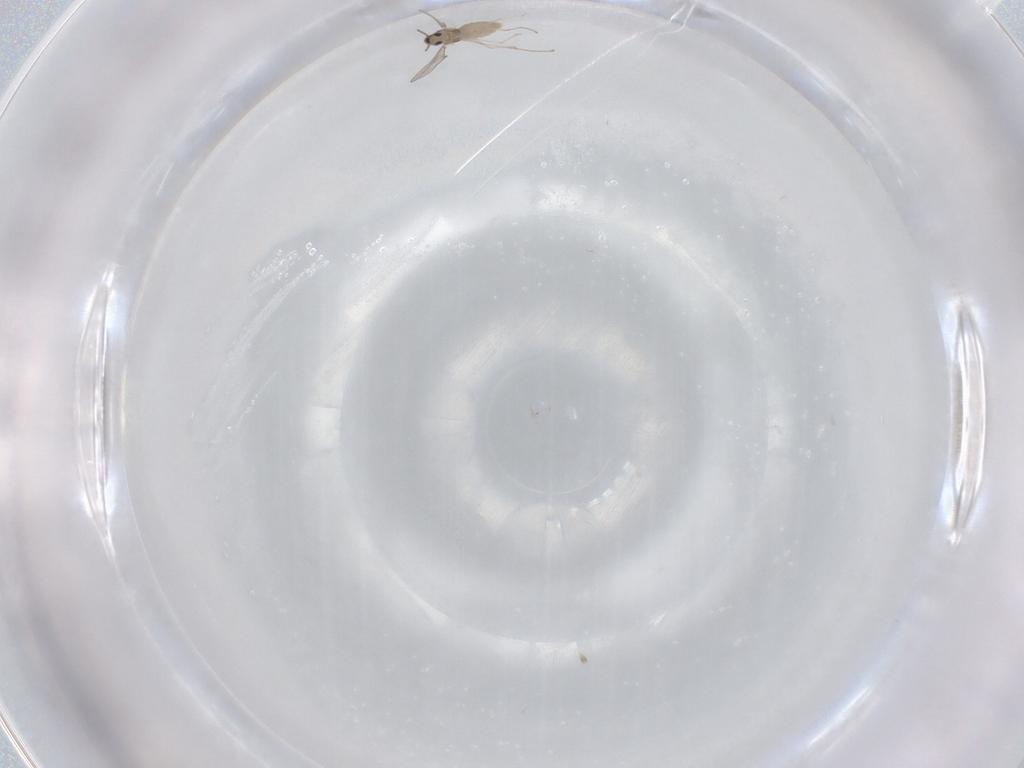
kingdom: Animalia
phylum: Arthropoda
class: Insecta
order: Diptera
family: Cecidomyiidae
